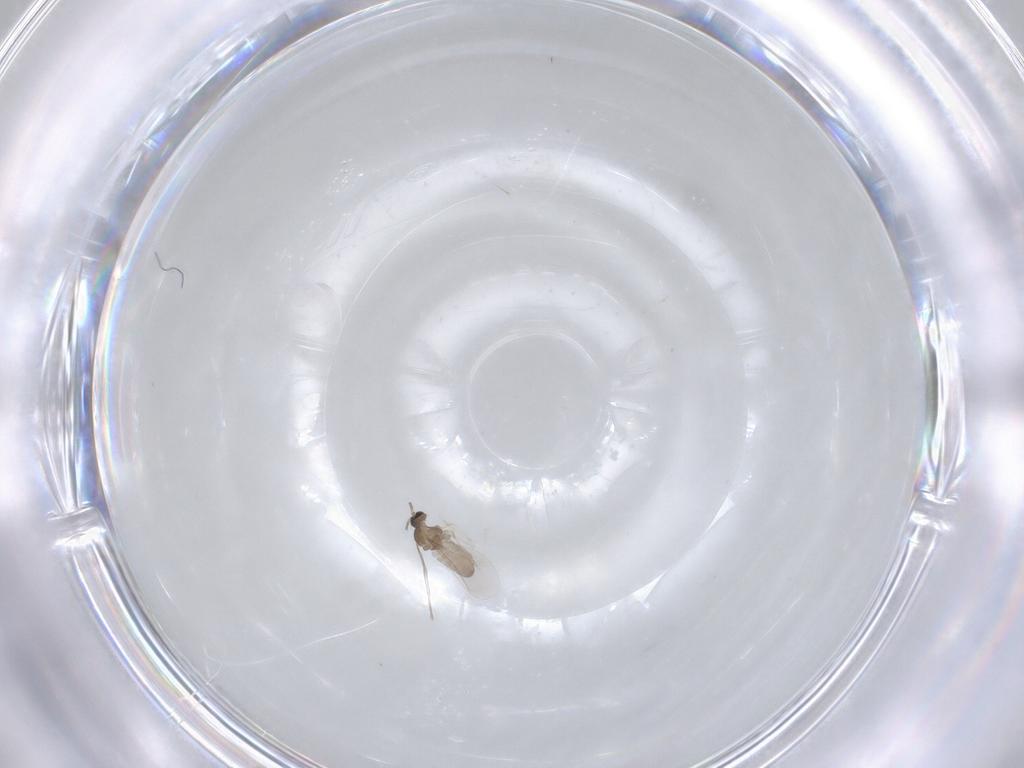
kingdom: Animalia
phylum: Arthropoda
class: Insecta
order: Diptera
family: Cecidomyiidae
